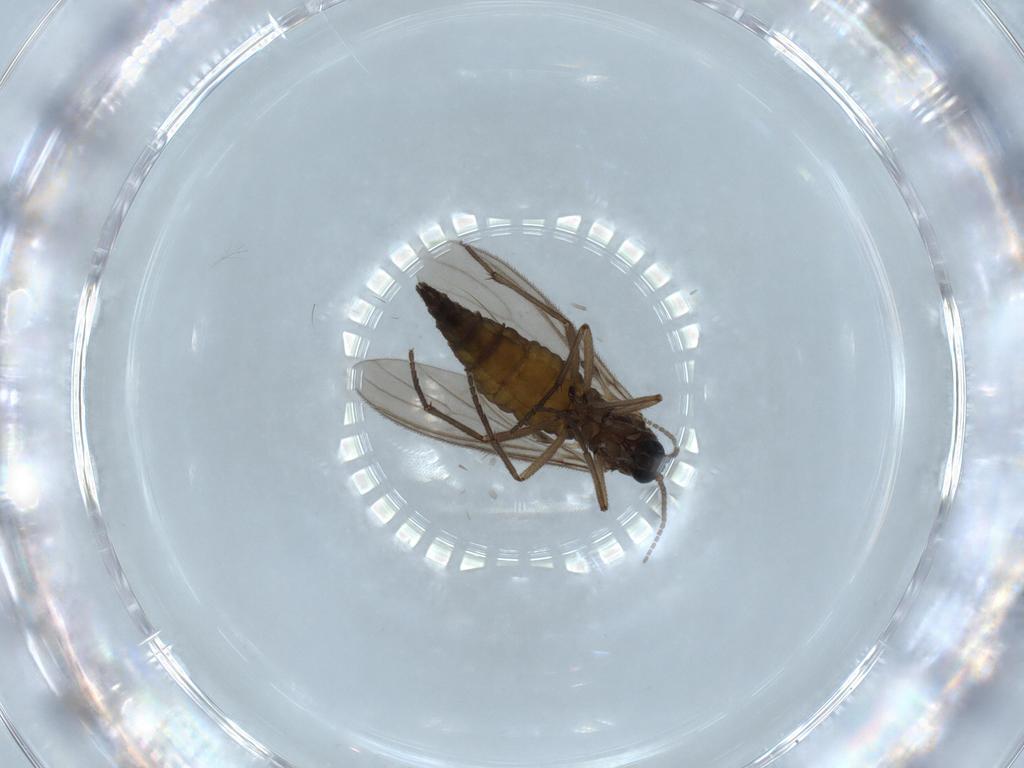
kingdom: Animalia
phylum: Arthropoda
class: Insecta
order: Diptera
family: Sciaridae
